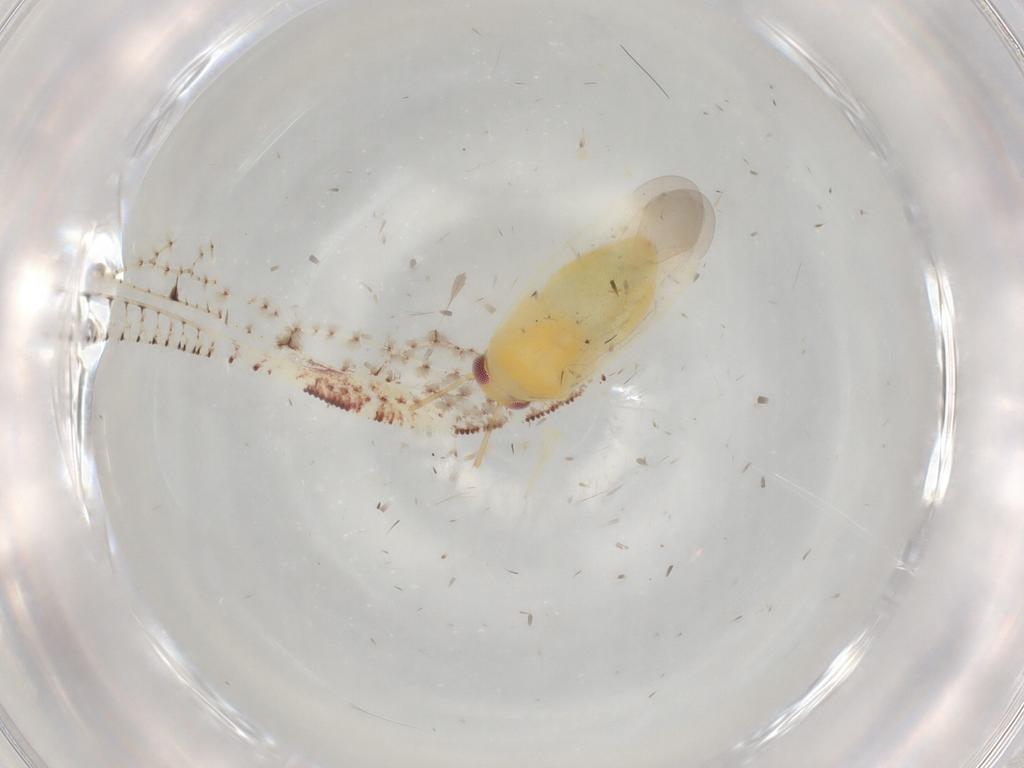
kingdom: Animalia
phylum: Arthropoda
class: Insecta
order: Hemiptera
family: Miridae
